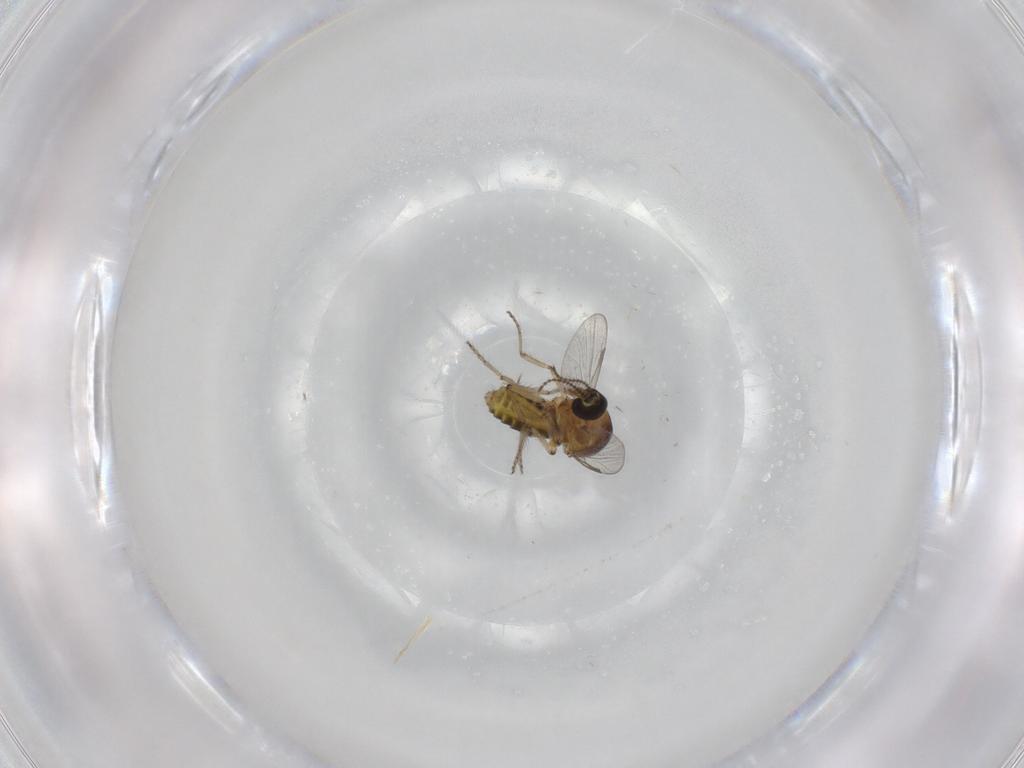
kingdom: Animalia
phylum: Arthropoda
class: Insecta
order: Diptera
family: Ceratopogonidae
